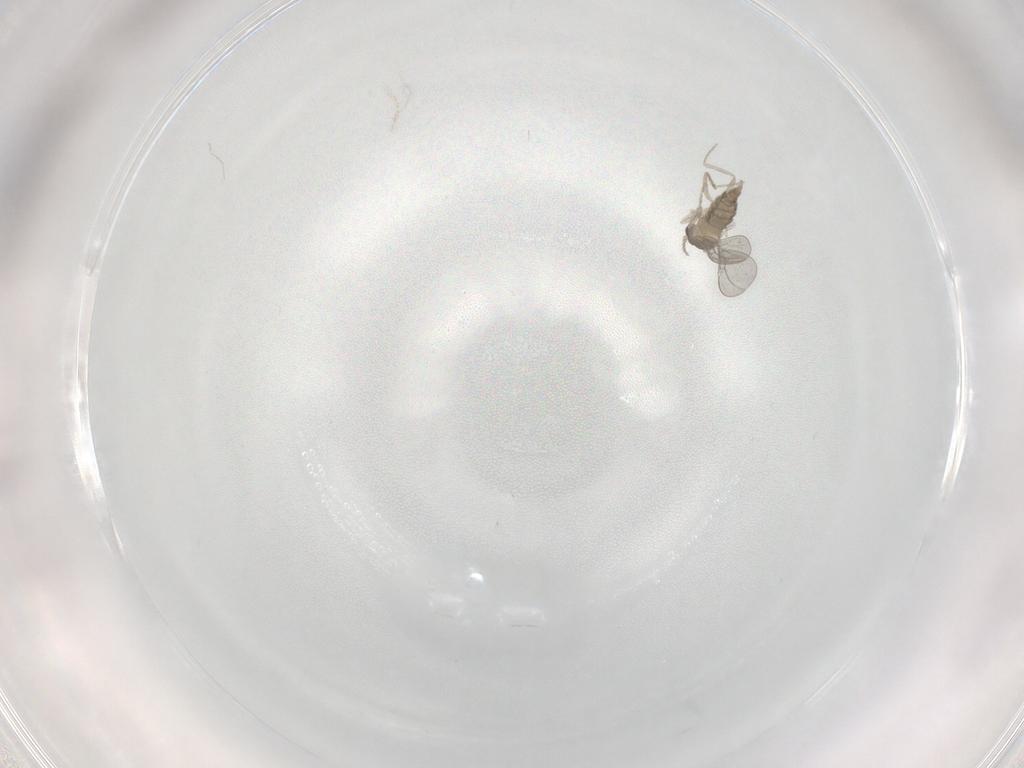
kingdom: Animalia
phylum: Arthropoda
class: Insecta
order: Diptera
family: Cecidomyiidae
